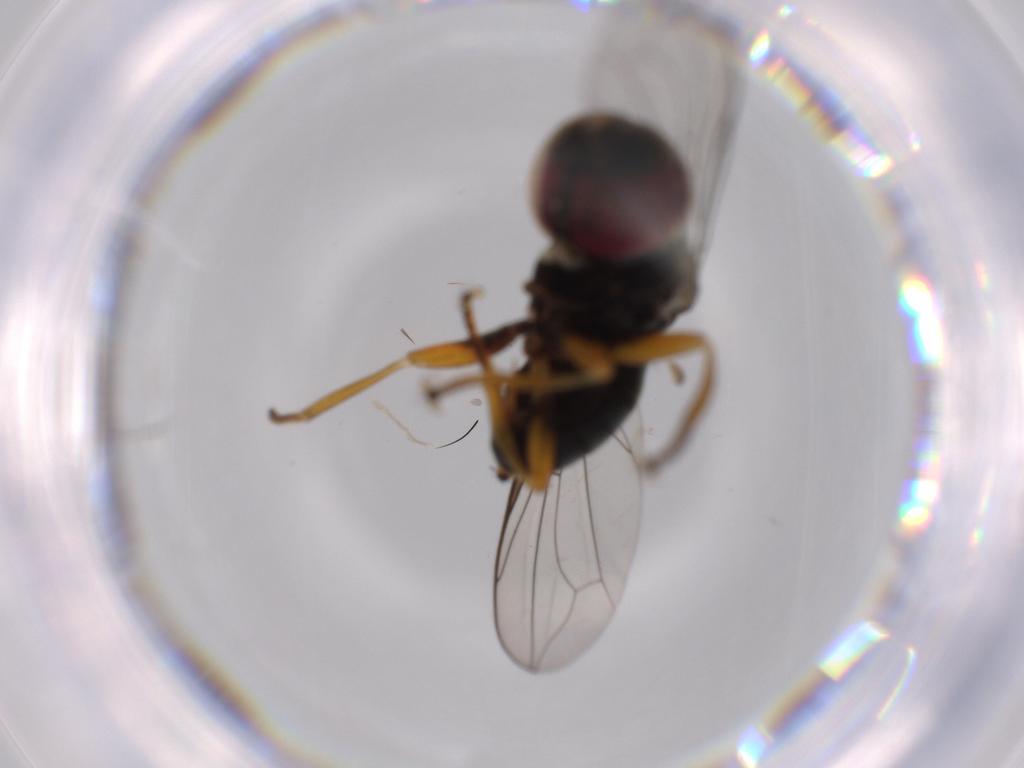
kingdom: Animalia
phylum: Arthropoda
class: Insecta
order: Diptera
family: Pipunculidae
